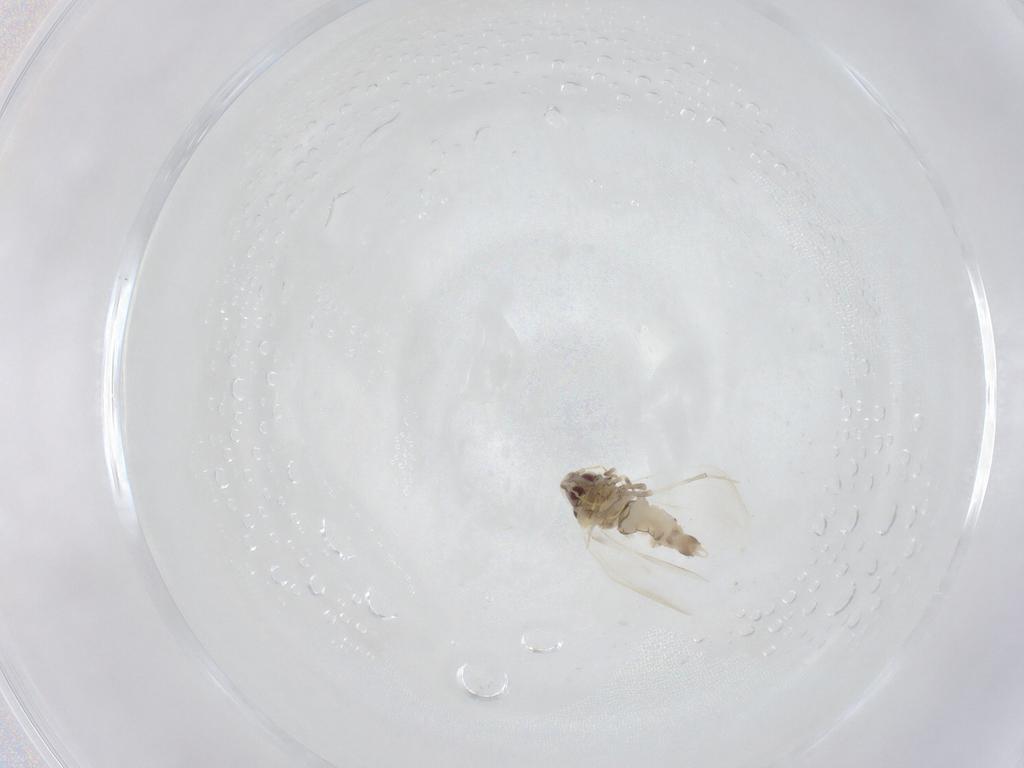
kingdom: Animalia
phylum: Arthropoda
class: Insecta
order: Hemiptera
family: Aleyrodidae
